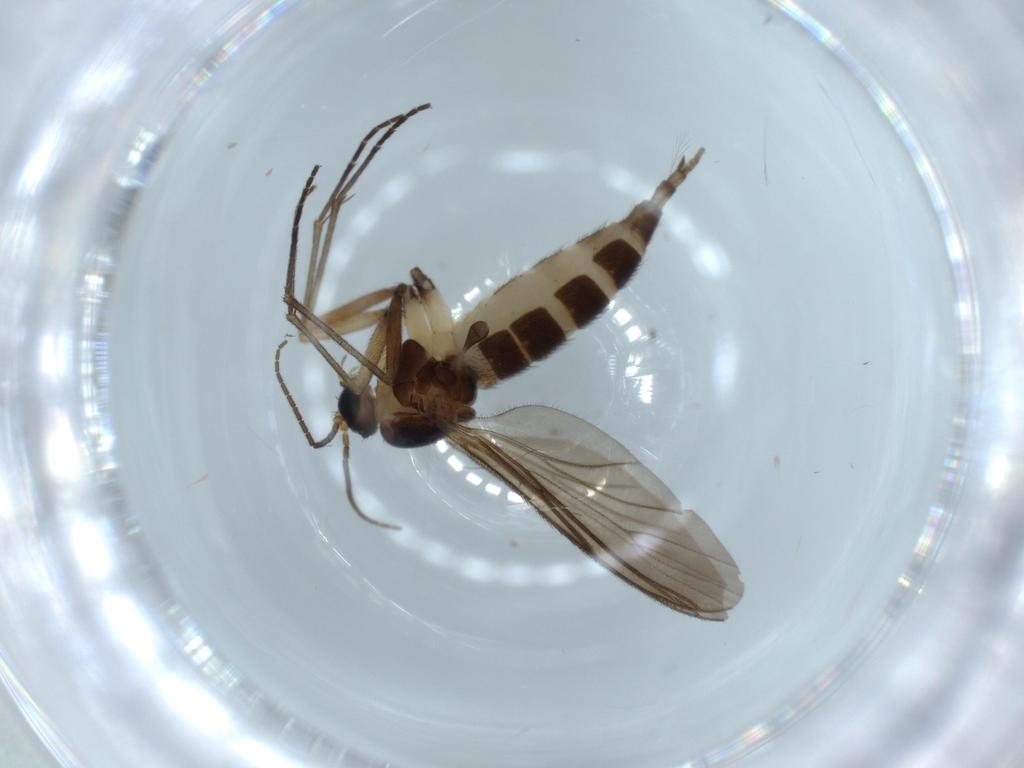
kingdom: Animalia
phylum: Arthropoda
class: Insecta
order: Diptera
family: Sciaridae
